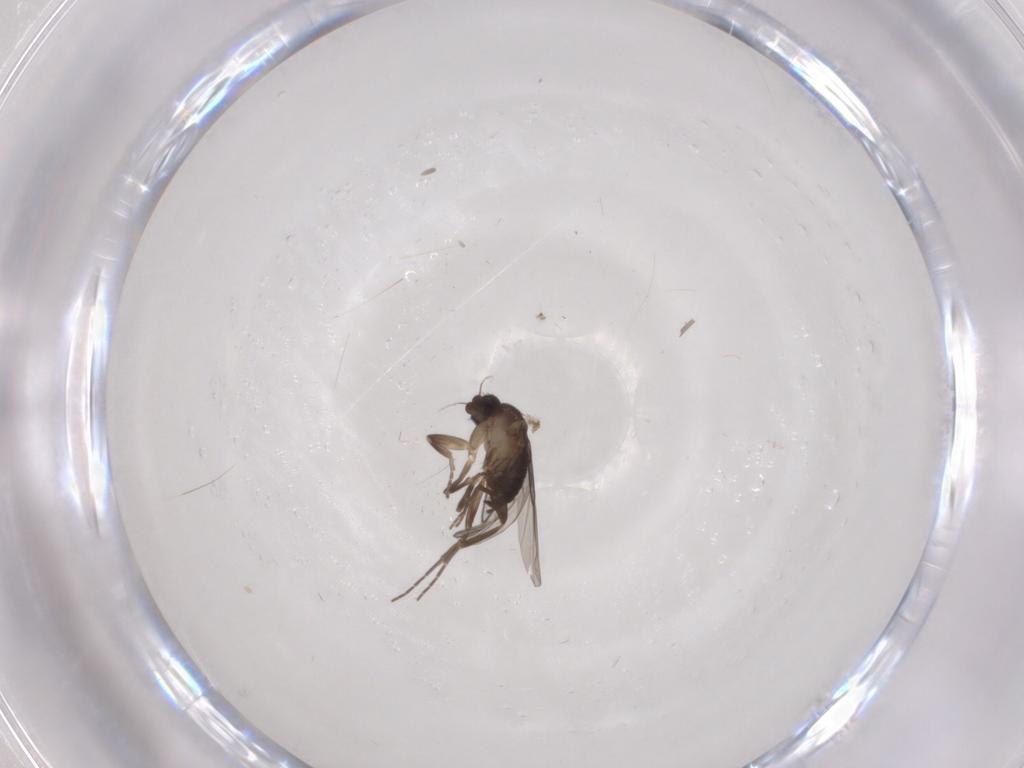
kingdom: Animalia
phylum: Arthropoda
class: Insecta
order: Diptera
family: Phoridae
